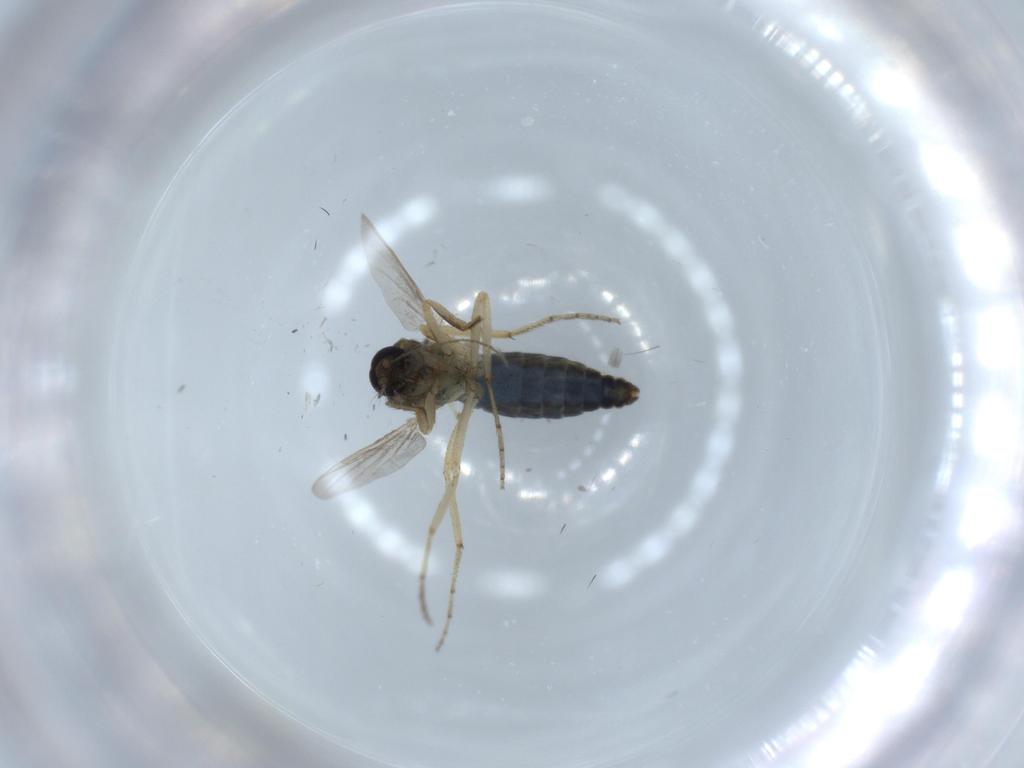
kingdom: Animalia
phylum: Arthropoda
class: Insecta
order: Diptera
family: Ceratopogonidae
